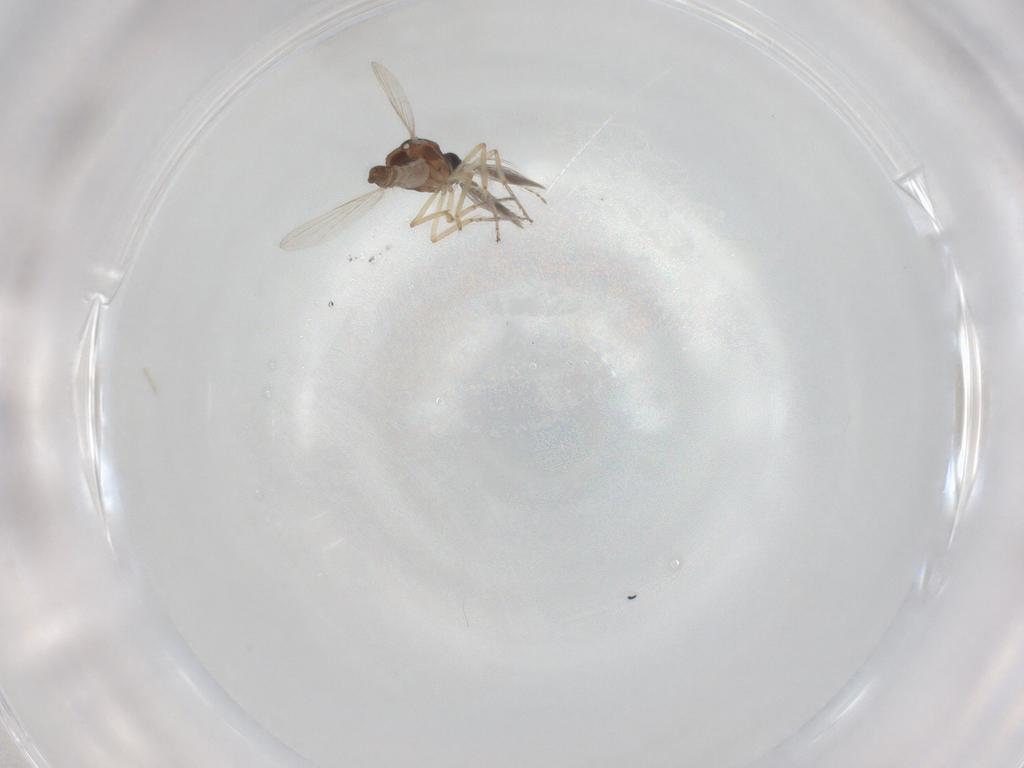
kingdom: Animalia
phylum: Arthropoda
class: Insecta
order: Diptera
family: Ceratopogonidae
